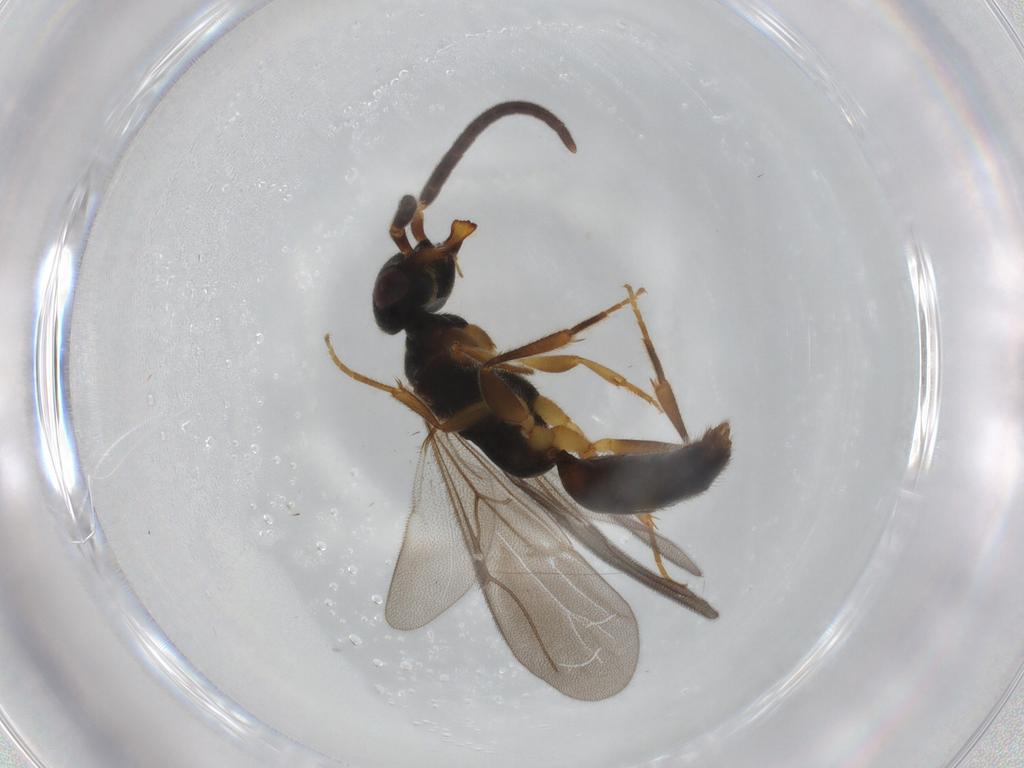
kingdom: Animalia
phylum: Arthropoda
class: Insecta
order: Hymenoptera
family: Bethylidae
